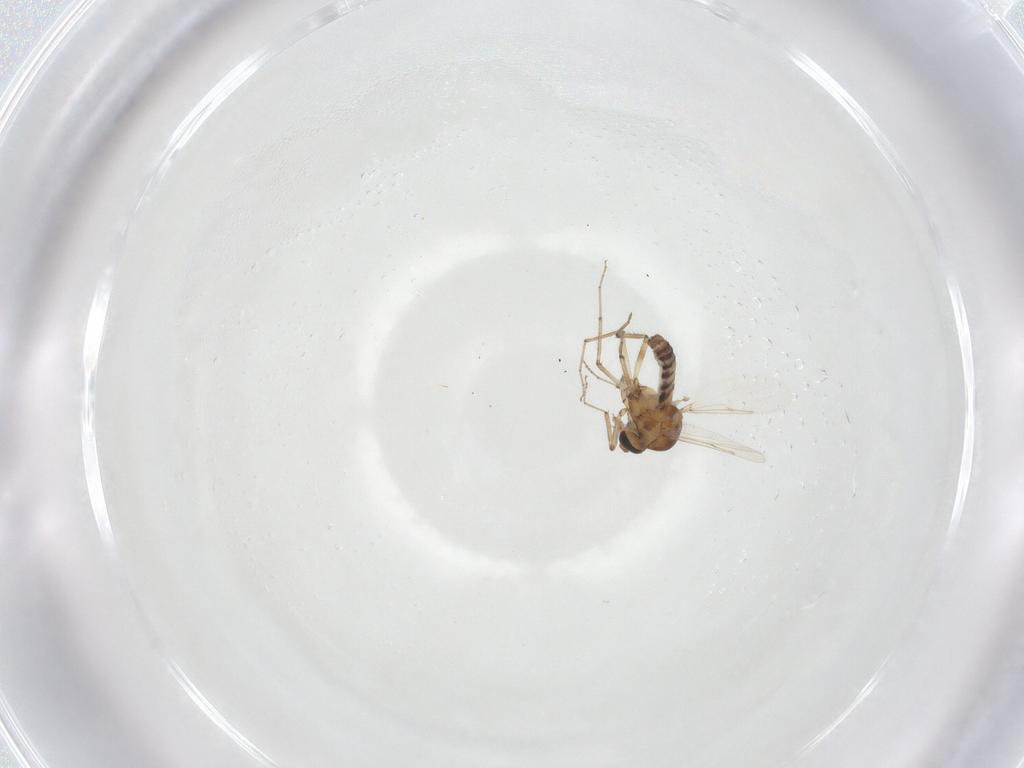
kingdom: Animalia
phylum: Arthropoda
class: Insecta
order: Diptera
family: Ceratopogonidae
